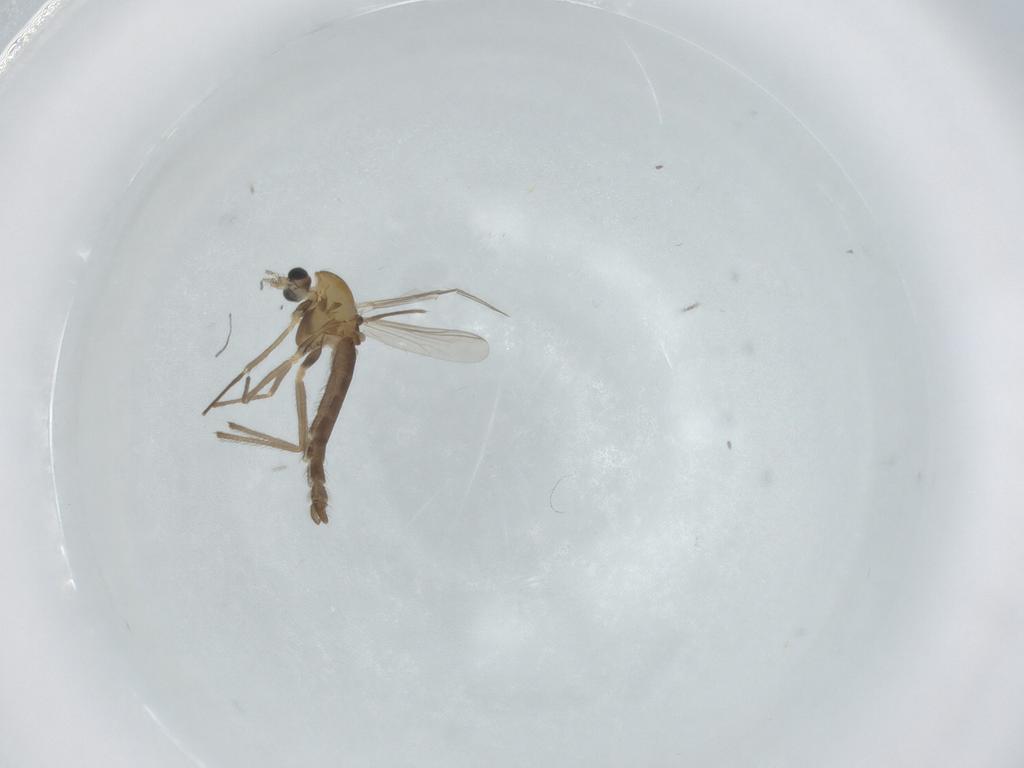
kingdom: Animalia
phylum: Arthropoda
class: Insecta
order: Diptera
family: Chironomidae
